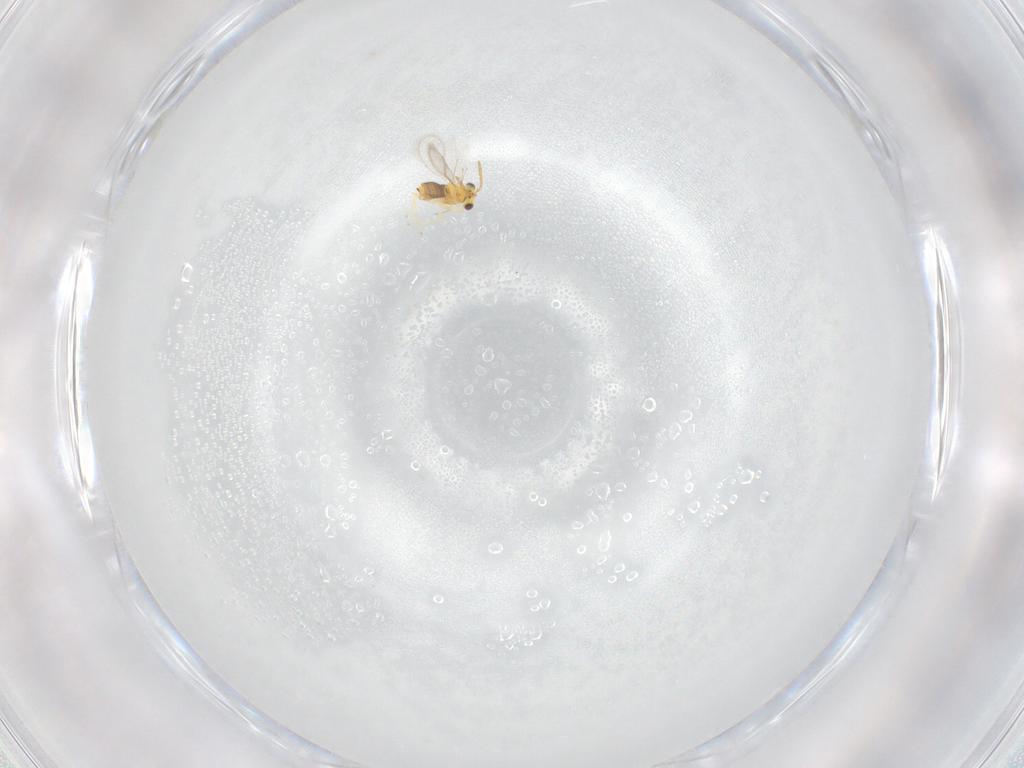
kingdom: Animalia
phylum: Arthropoda
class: Insecta
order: Hymenoptera
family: Aphelinidae
